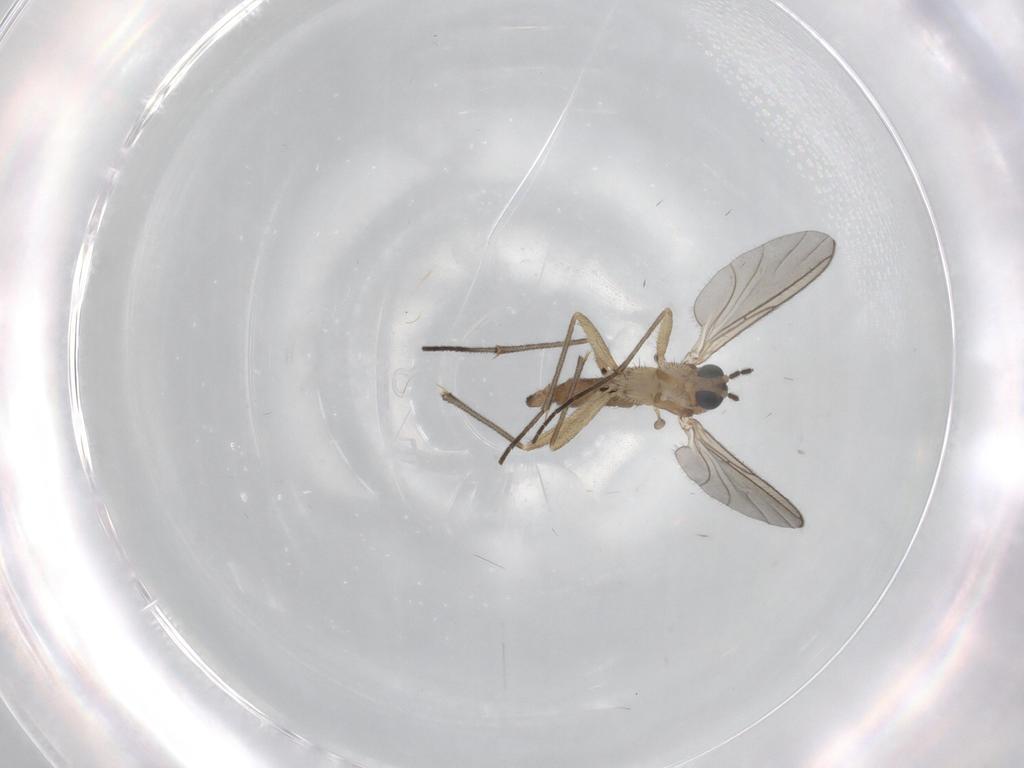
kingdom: Animalia
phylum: Arthropoda
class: Insecta
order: Diptera
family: Sciaridae
